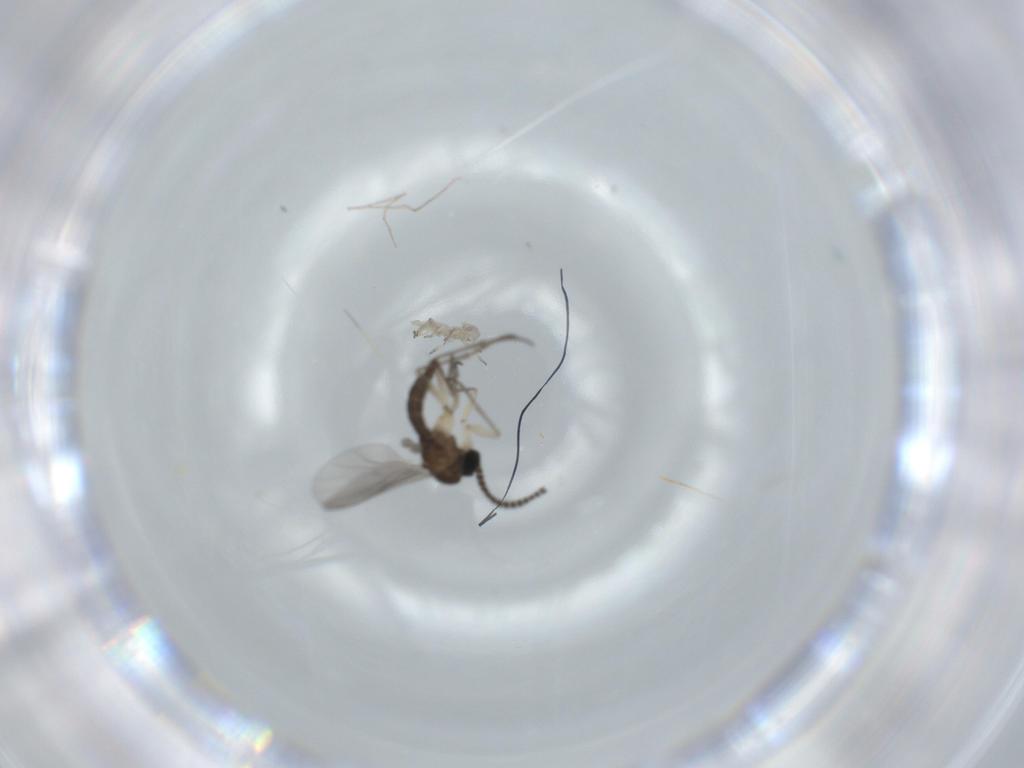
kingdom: Animalia
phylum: Arthropoda
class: Insecta
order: Diptera
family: Sciaridae
